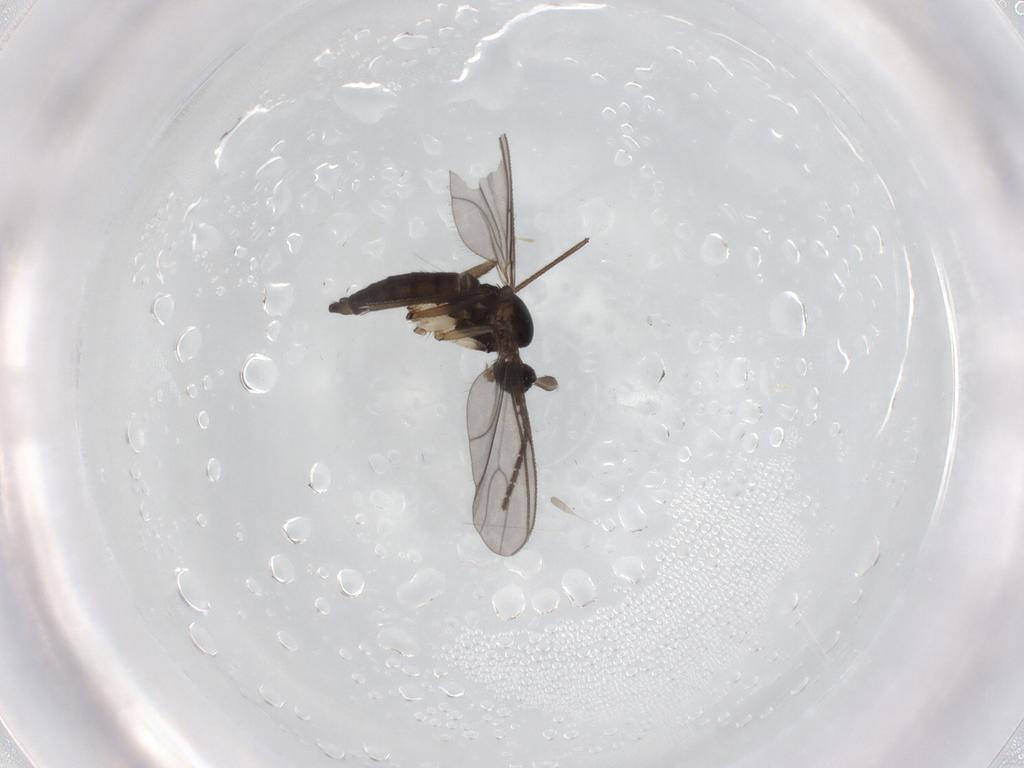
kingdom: Animalia
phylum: Arthropoda
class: Insecta
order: Diptera
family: Sciaridae
